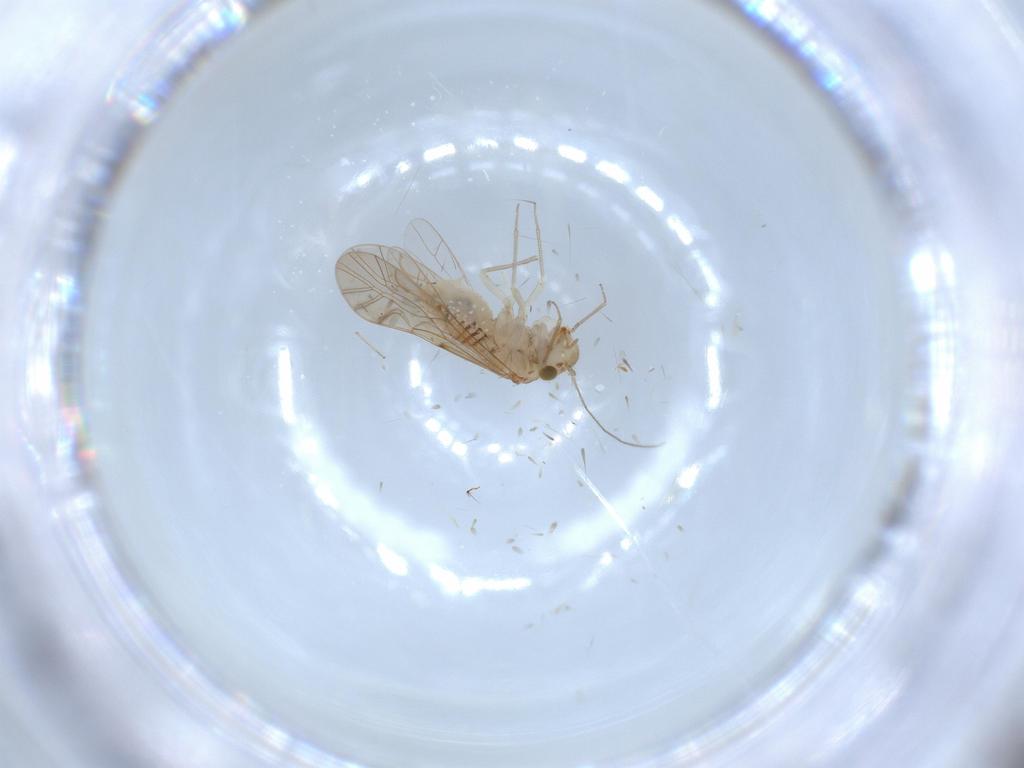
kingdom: Animalia
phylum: Arthropoda
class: Insecta
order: Psocodea
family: Lachesillidae
